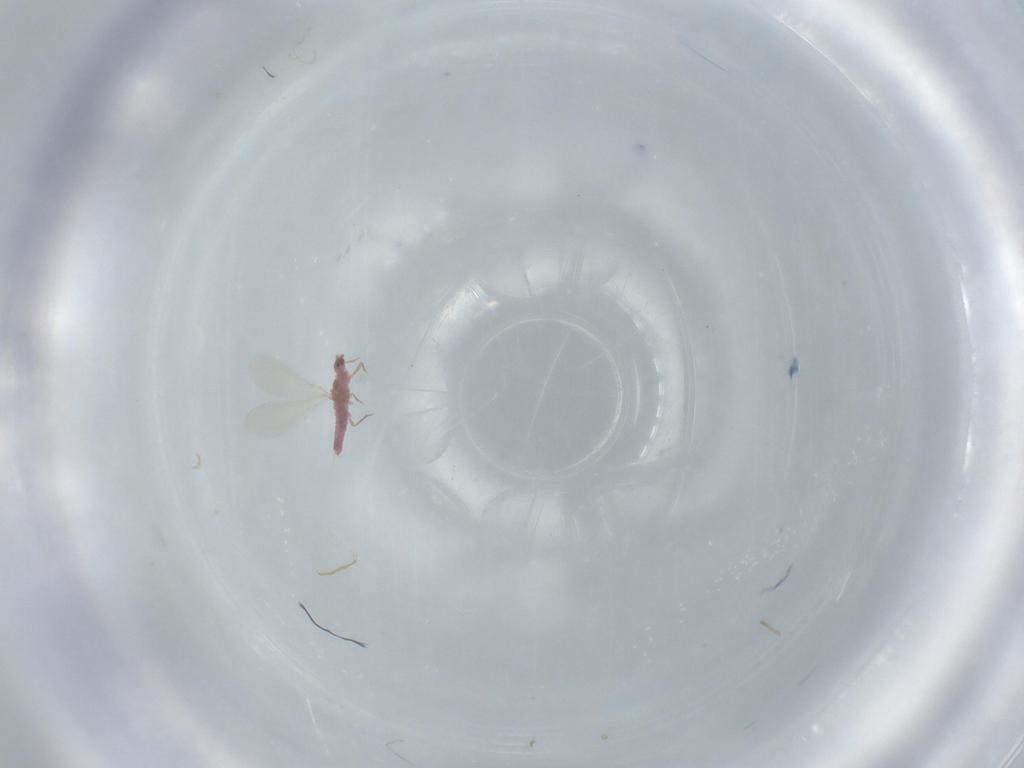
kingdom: Animalia
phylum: Arthropoda
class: Insecta
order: Hemiptera
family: Pseudococcidae
